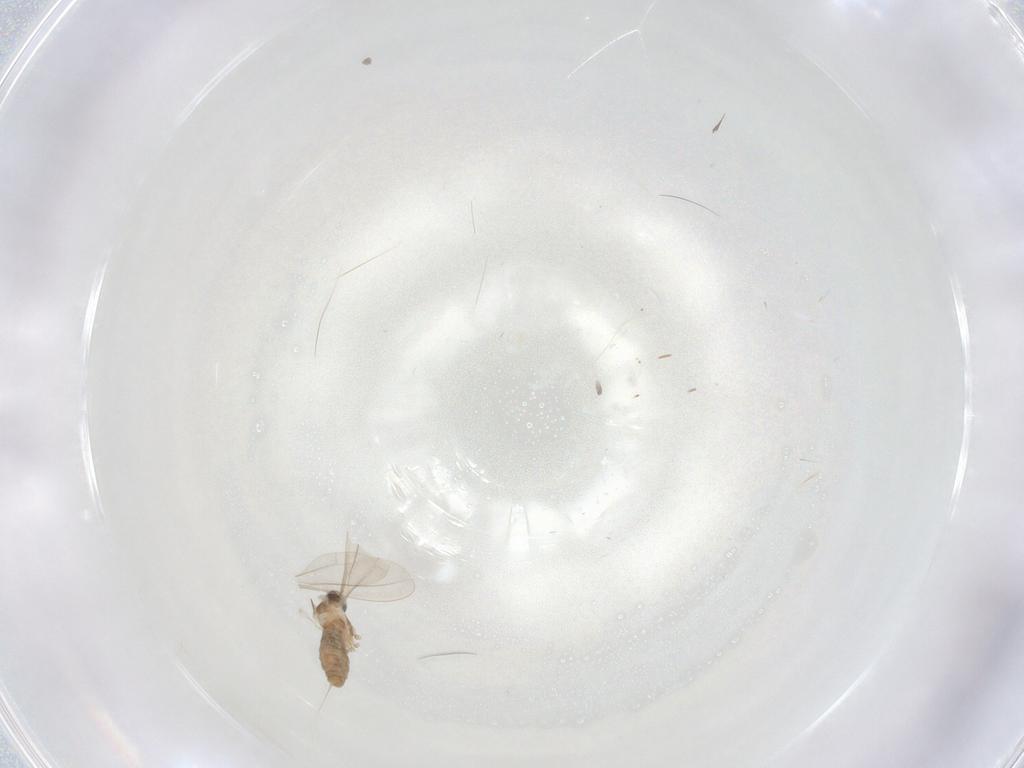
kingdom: Animalia
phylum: Arthropoda
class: Insecta
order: Diptera
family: Cecidomyiidae
